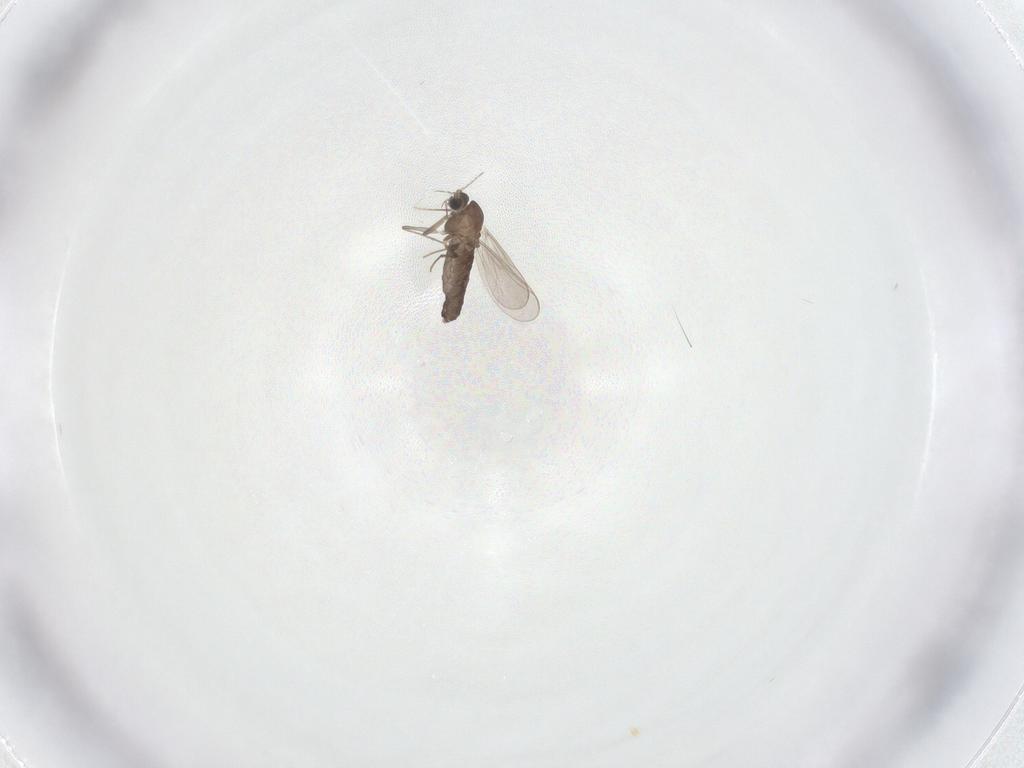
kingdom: Animalia
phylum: Arthropoda
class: Insecta
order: Diptera
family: Chironomidae
